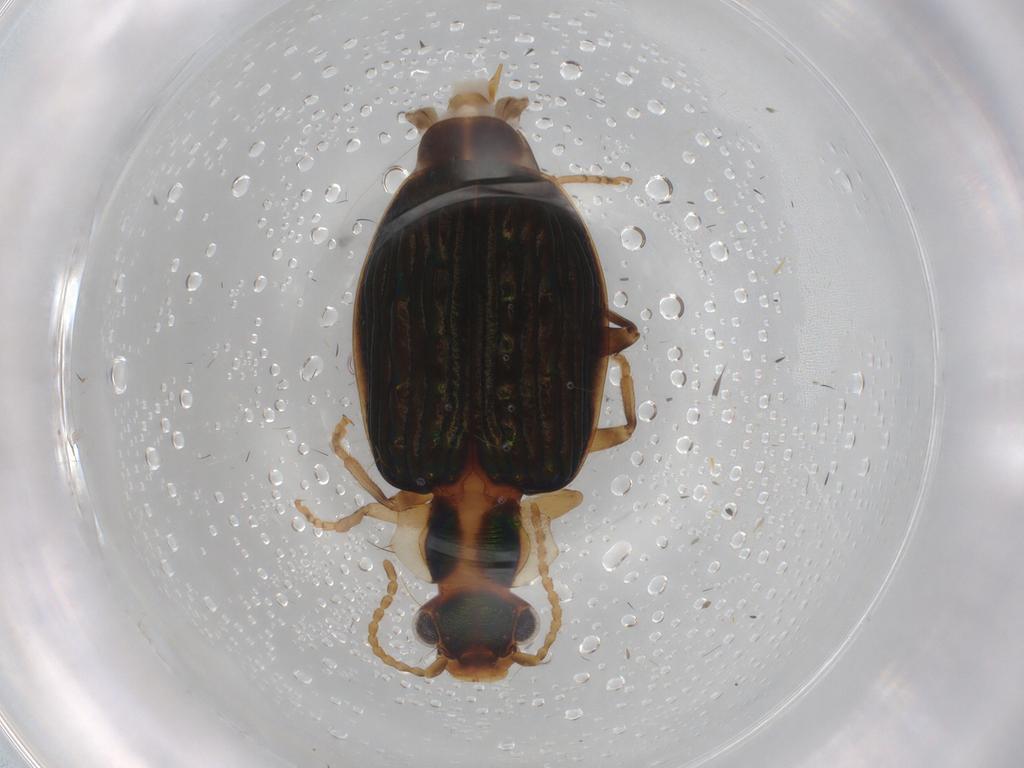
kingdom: Animalia
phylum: Arthropoda
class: Insecta
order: Coleoptera
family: Carabidae
